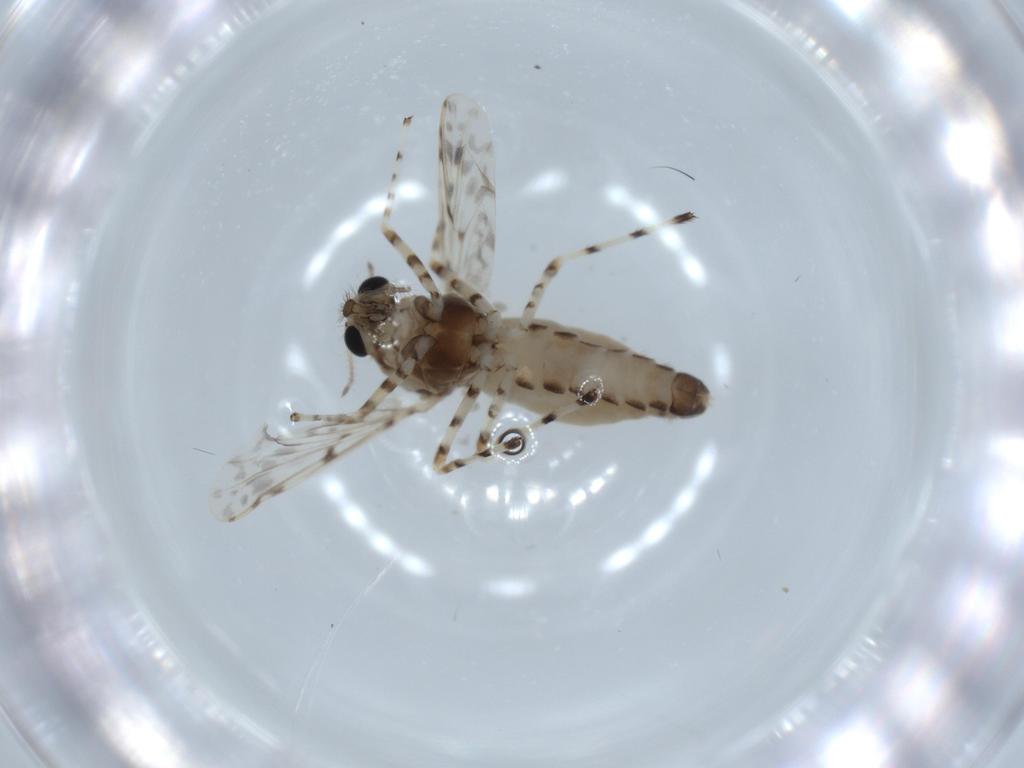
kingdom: Animalia
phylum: Arthropoda
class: Insecta
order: Diptera
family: Chironomidae
